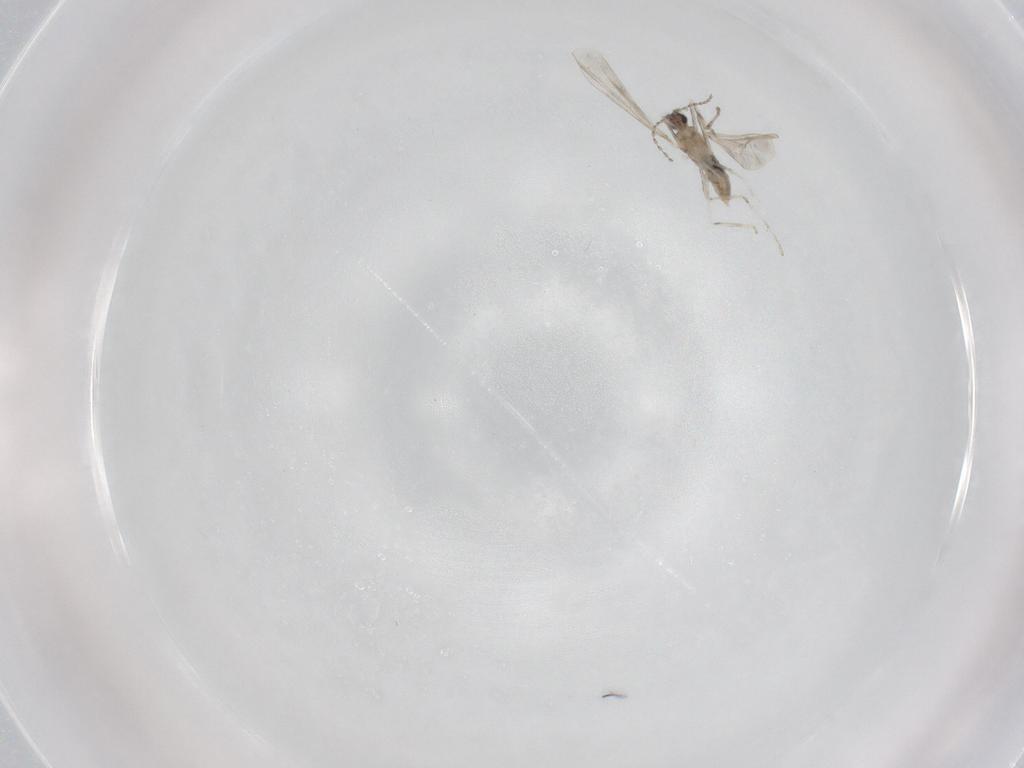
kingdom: Animalia
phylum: Arthropoda
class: Insecta
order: Diptera
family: Cecidomyiidae
